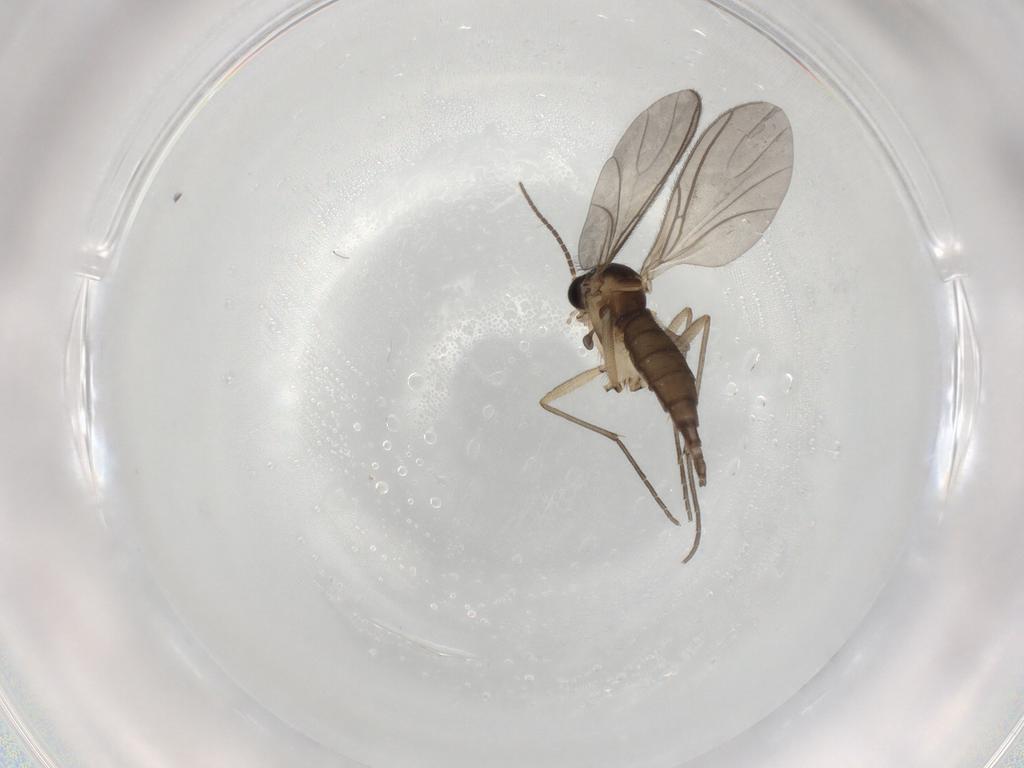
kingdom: Animalia
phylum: Arthropoda
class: Insecta
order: Diptera
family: Sciaridae
